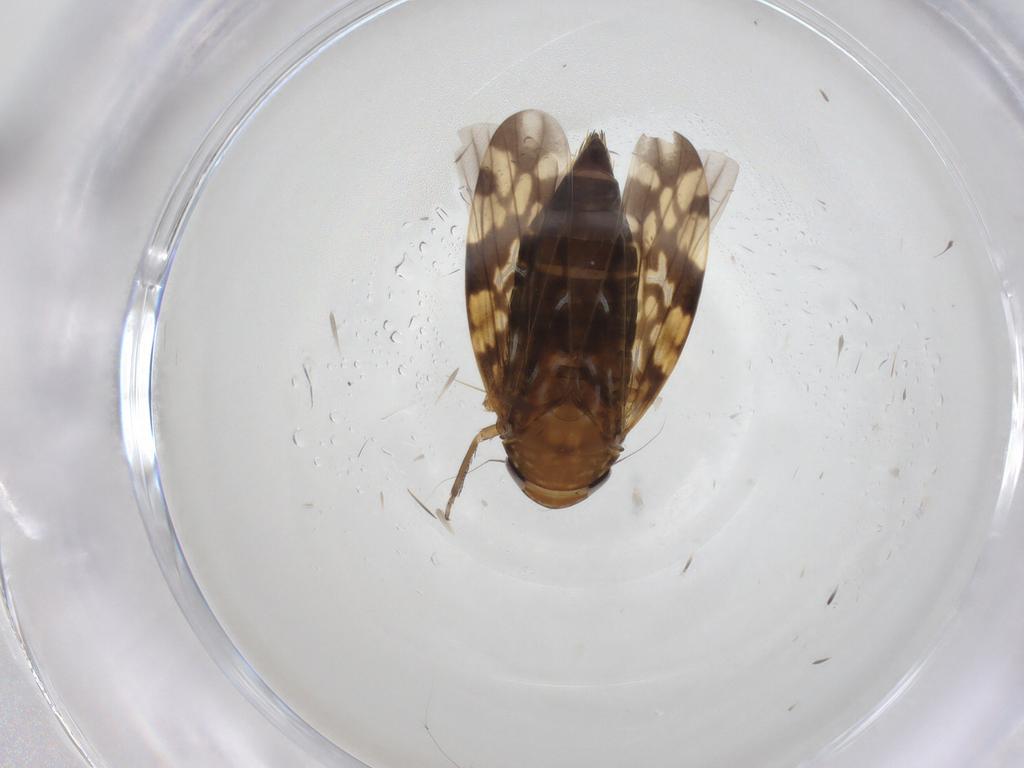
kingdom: Animalia
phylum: Arthropoda
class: Insecta
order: Hemiptera
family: Cicadellidae
